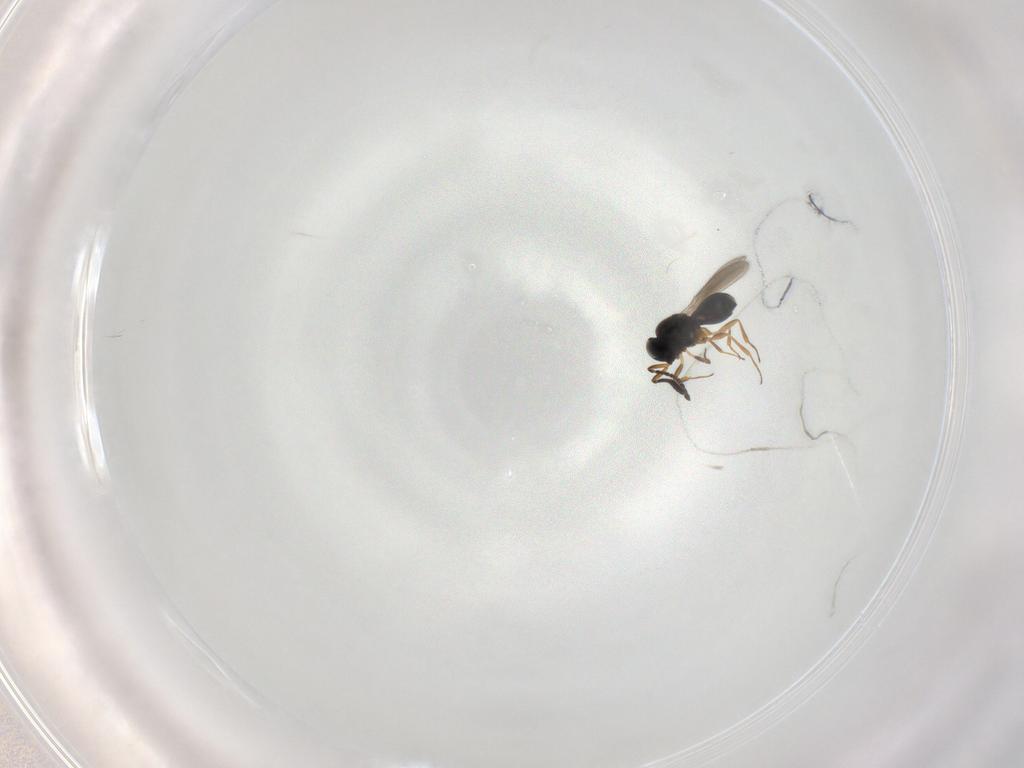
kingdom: Animalia
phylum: Arthropoda
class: Insecta
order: Hymenoptera
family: Scelionidae
